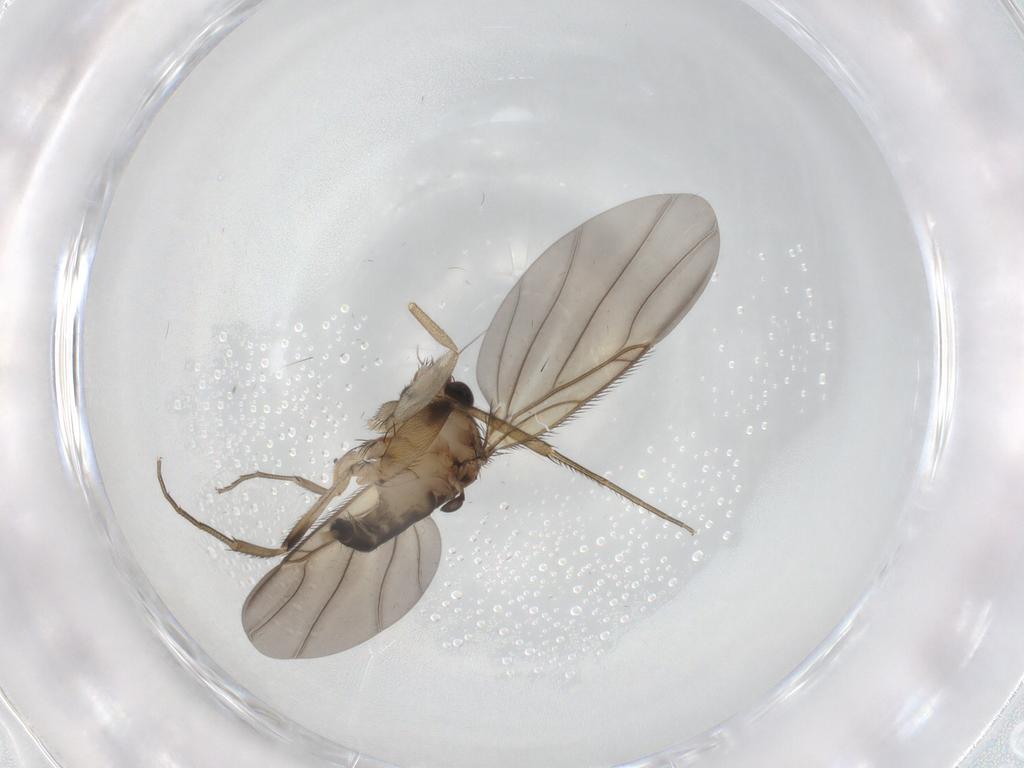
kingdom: Animalia
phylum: Arthropoda
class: Insecta
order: Diptera
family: Phoridae
